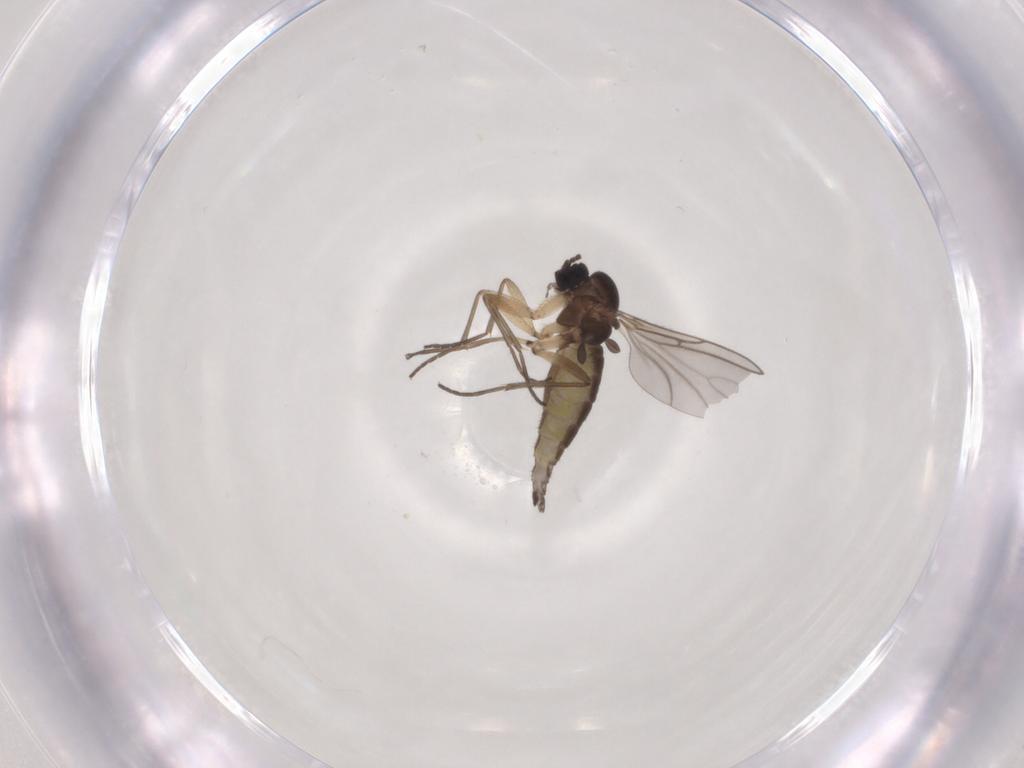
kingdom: Animalia
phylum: Arthropoda
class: Insecta
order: Diptera
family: Sciaridae
